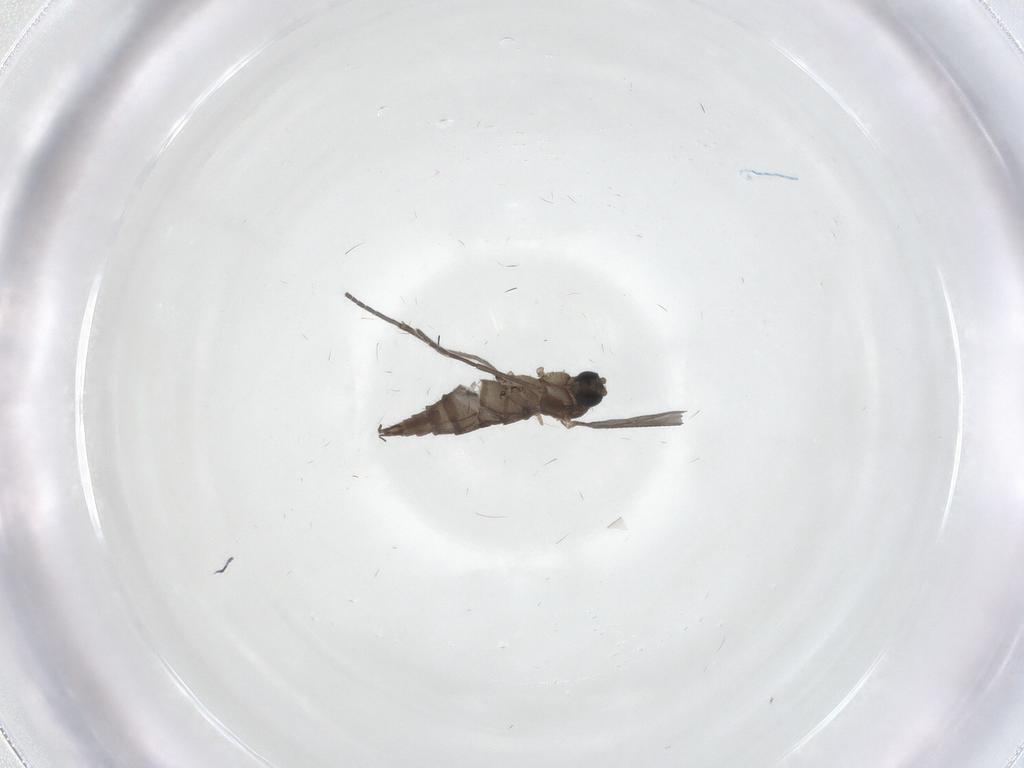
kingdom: Animalia
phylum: Arthropoda
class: Insecta
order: Diptera
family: Sciaridae
